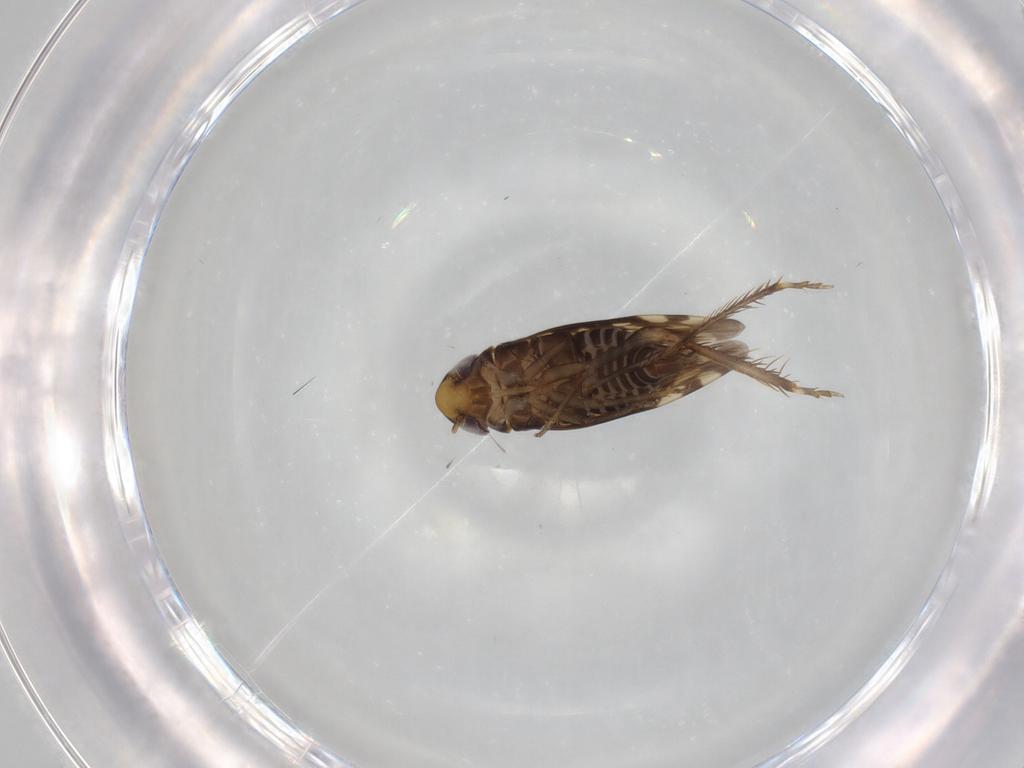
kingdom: Animalia
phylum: Arthropoda
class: Insecta
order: Hemiptera
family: Cicadellidae
